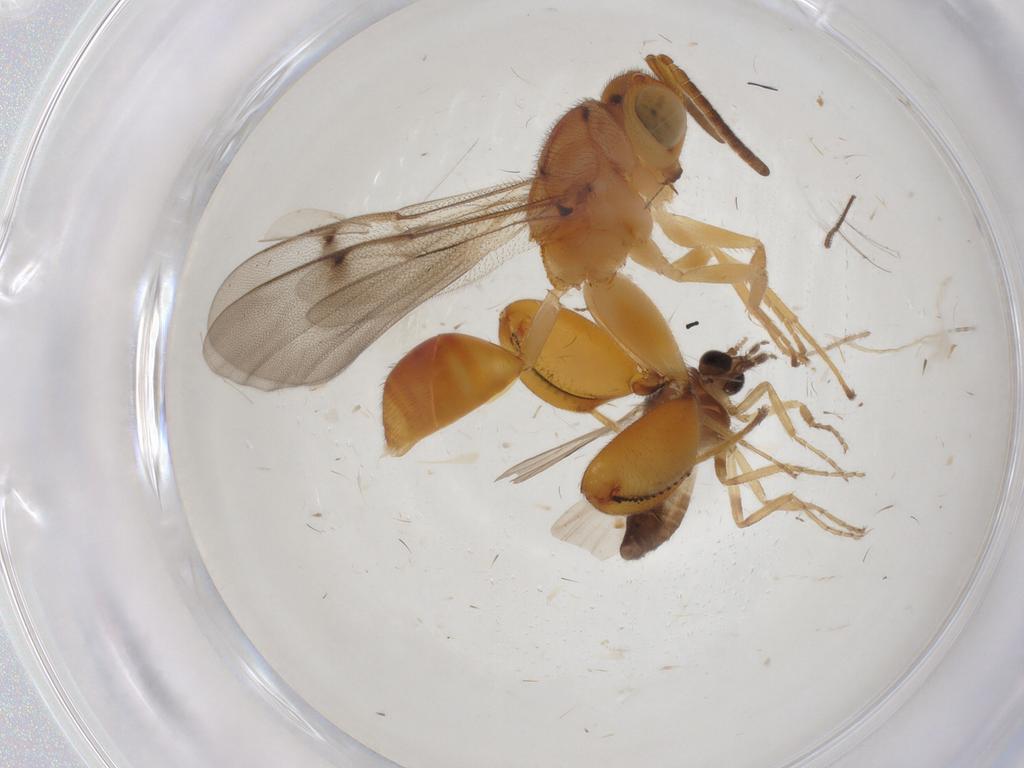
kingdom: Animalia
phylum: Arthropoda
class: Insecta
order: Diptera
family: Ceratopogonidae
